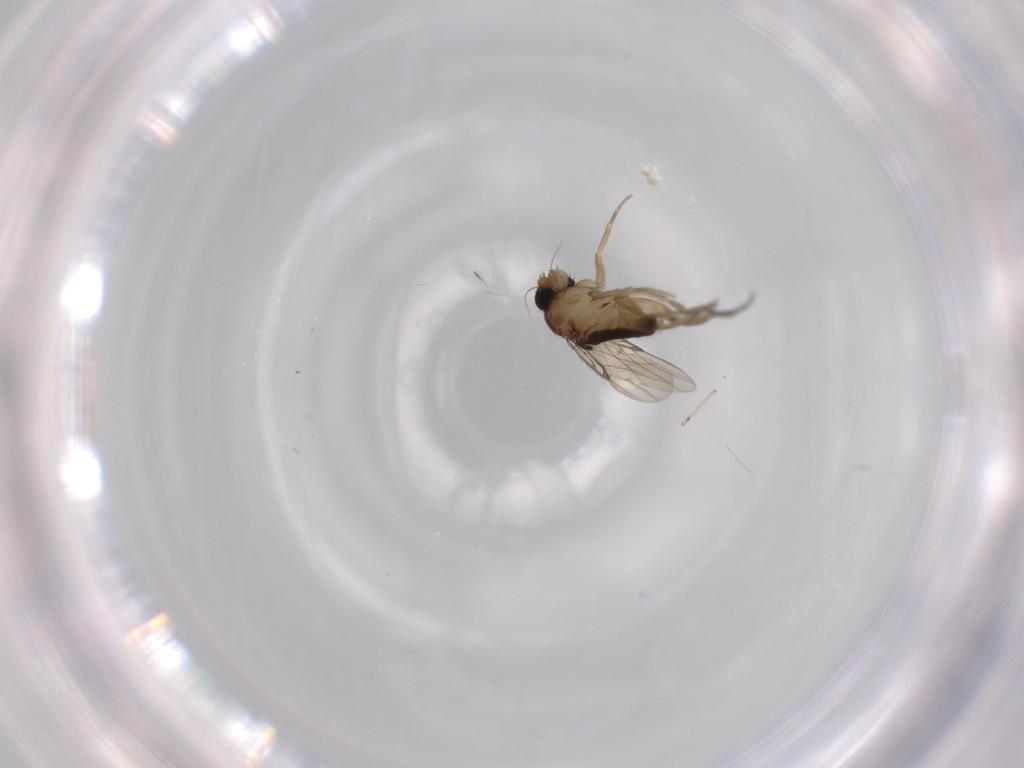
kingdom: Animalia
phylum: Arthropoda
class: Insecta
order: Diptera
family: Phoridae
